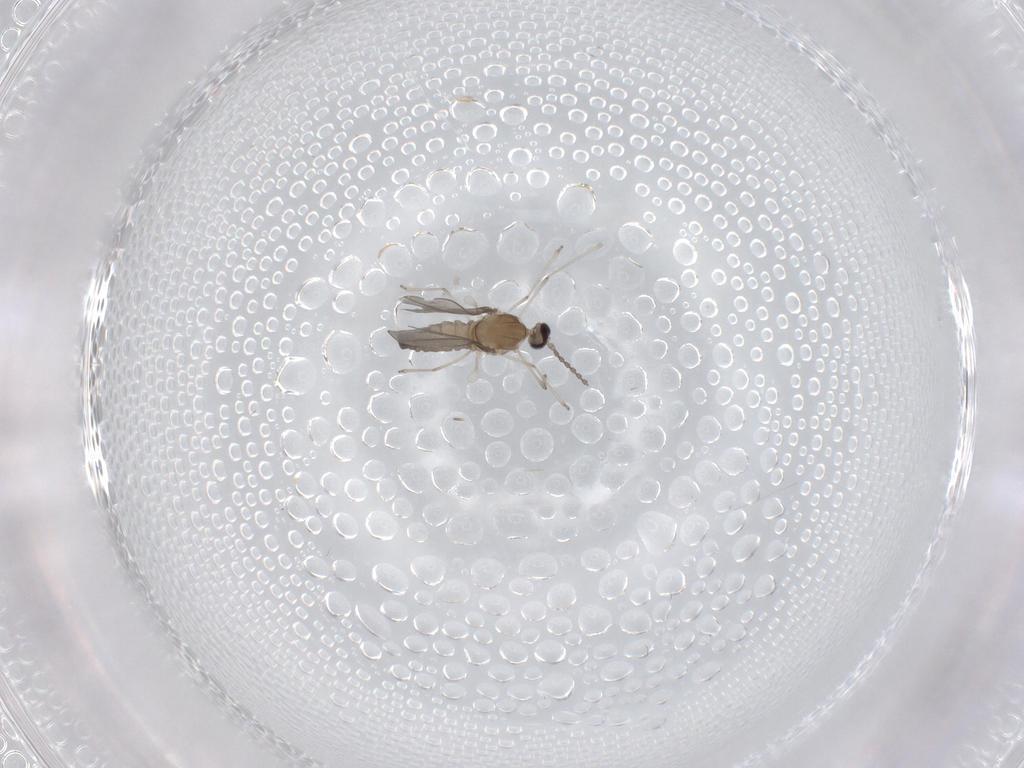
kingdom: Animalia
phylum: Arthropoda
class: Insecta
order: Diptera
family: Cecidomyiidae
